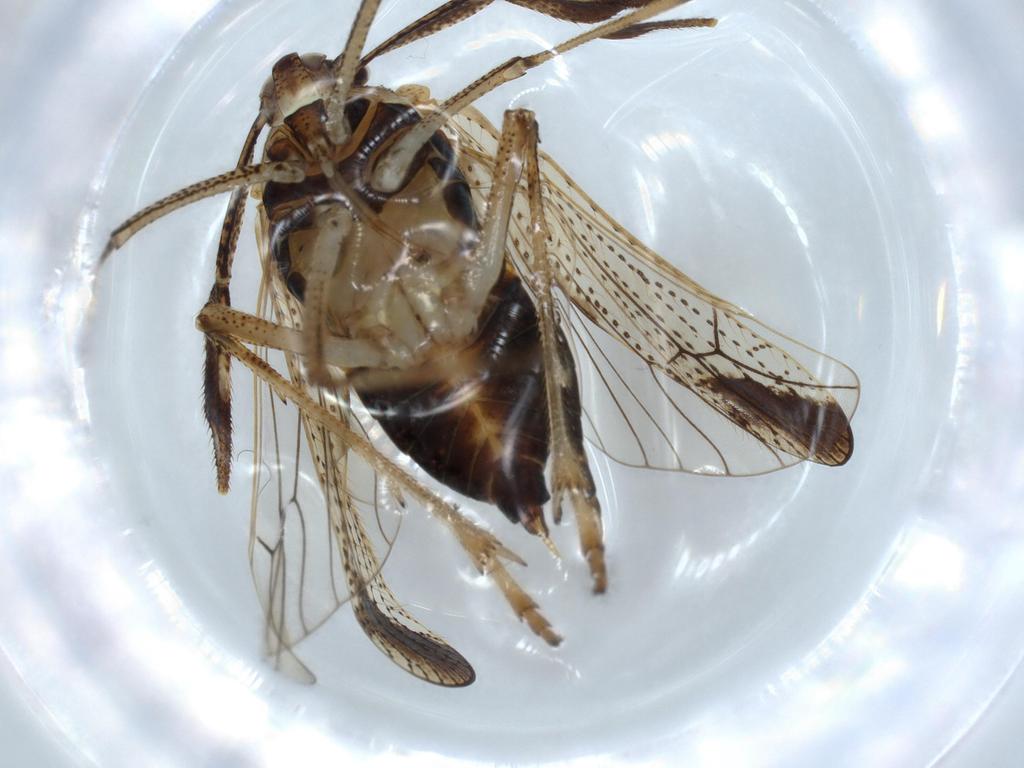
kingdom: Animalia
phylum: Arthropoda
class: Insecta
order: Hemiptera
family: Delphacidae
